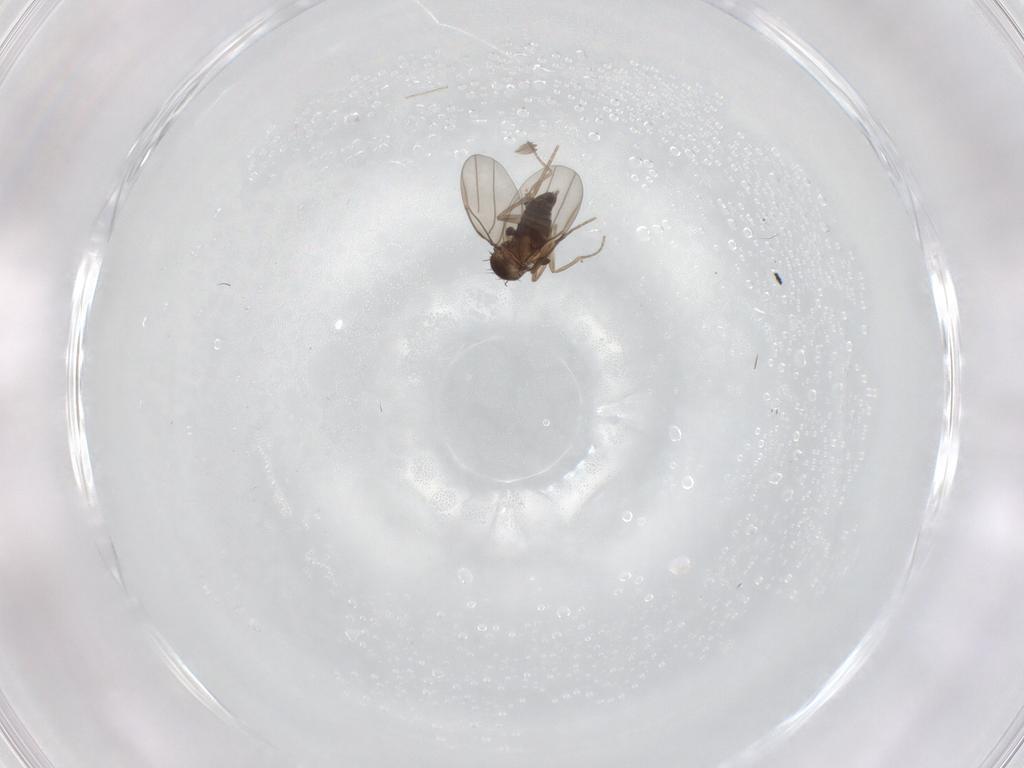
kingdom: Animalia
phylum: Arthropoda
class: Insecta
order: Diptera
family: Phoridae
